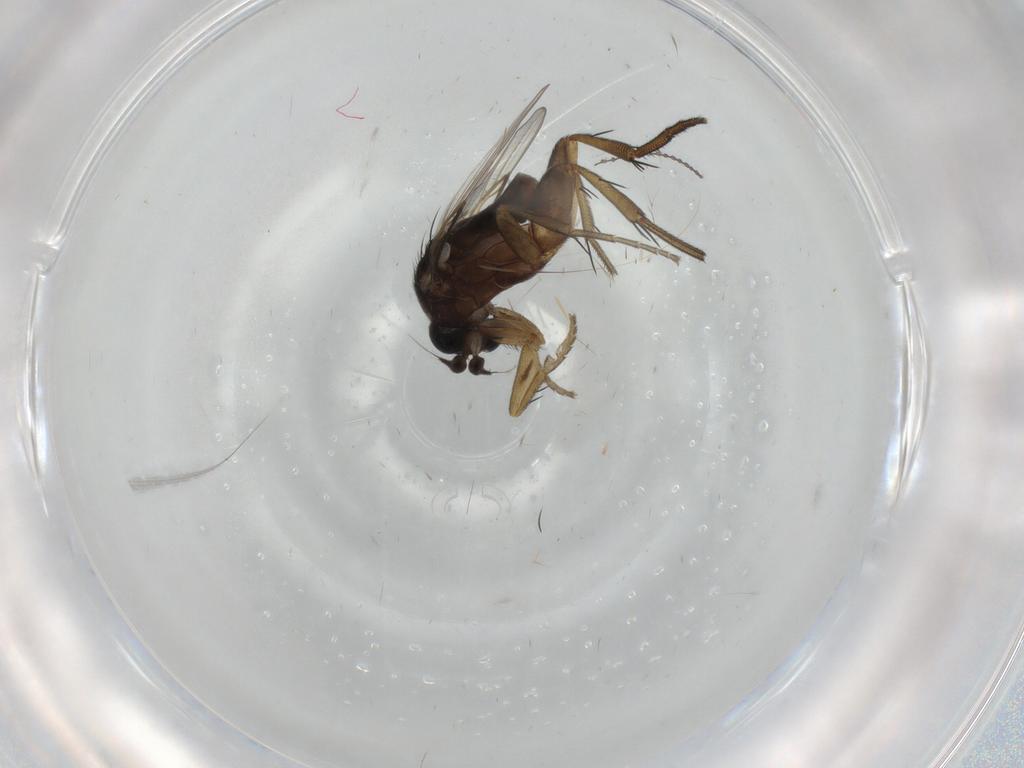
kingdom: Animalia
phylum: Arthropoda
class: Insecta
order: Diptera
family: Phoridae
